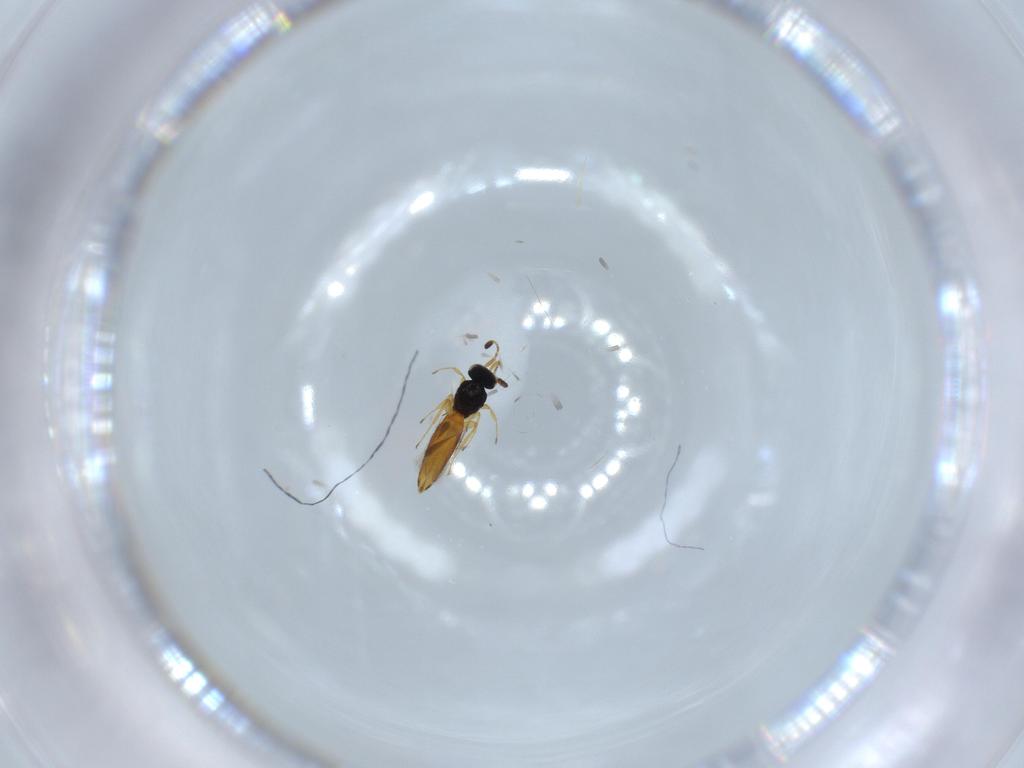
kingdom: Animalia
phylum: Arthropoda
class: Insecta
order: Hymenoptera
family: Scelionidae
